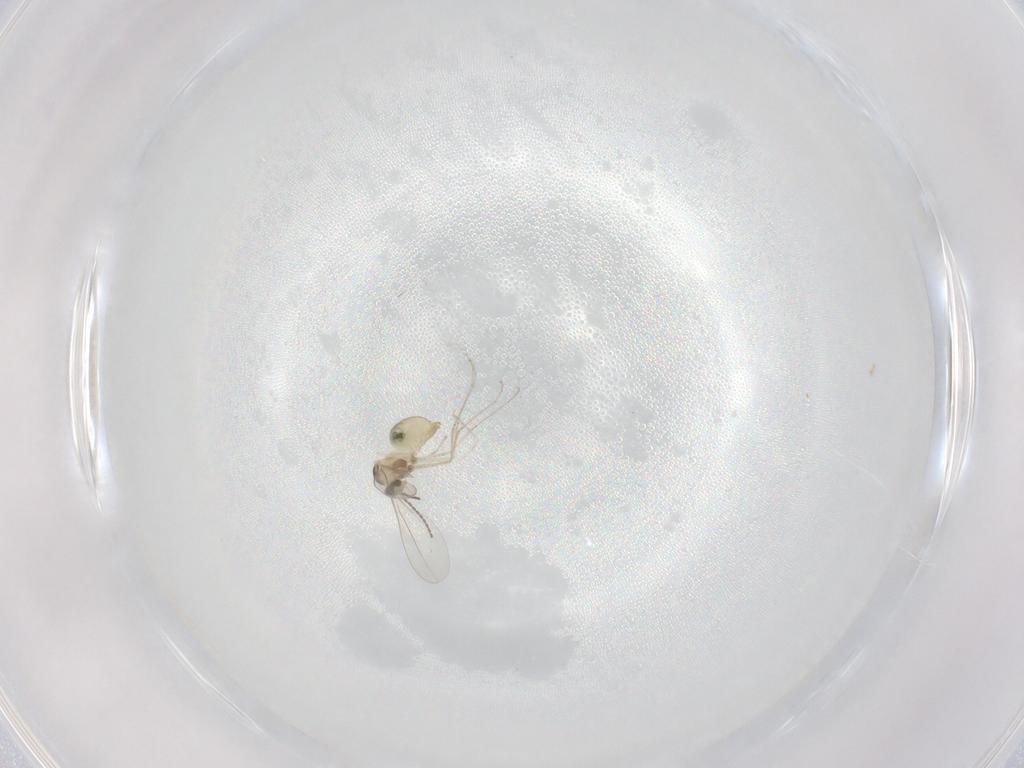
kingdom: Animalia
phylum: Arthropoda
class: Insecta
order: Diptera
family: Cecidomyiidae
